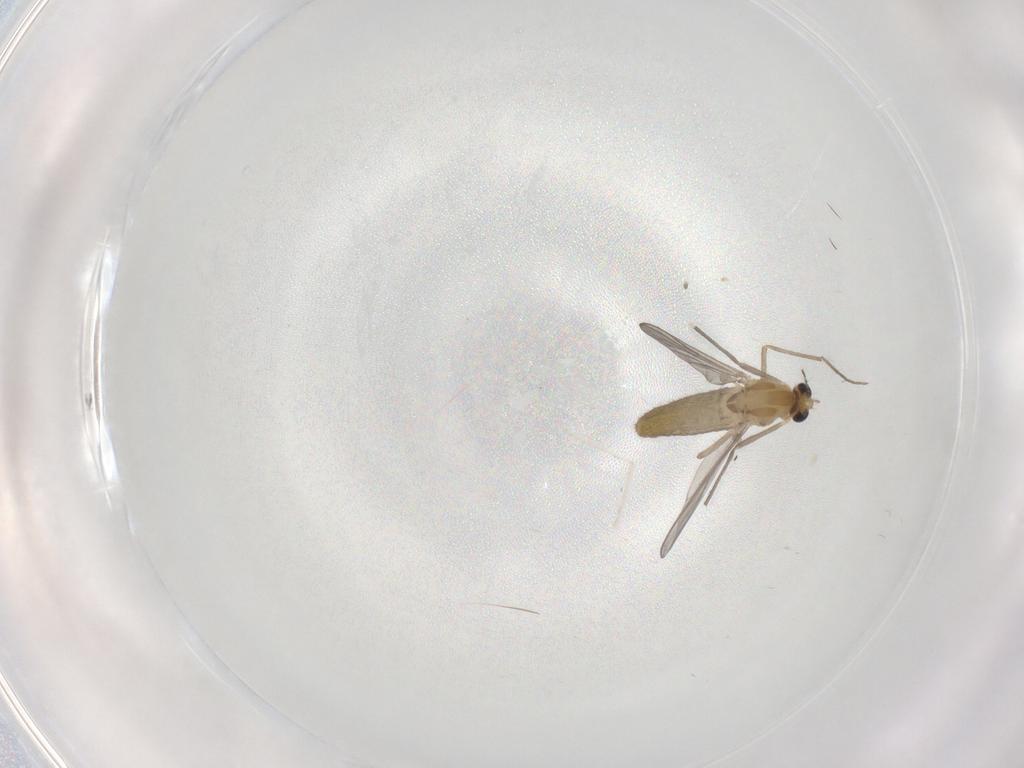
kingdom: Animalia
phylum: Arthropoda
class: Insecta
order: Diptera
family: Chironomidae
